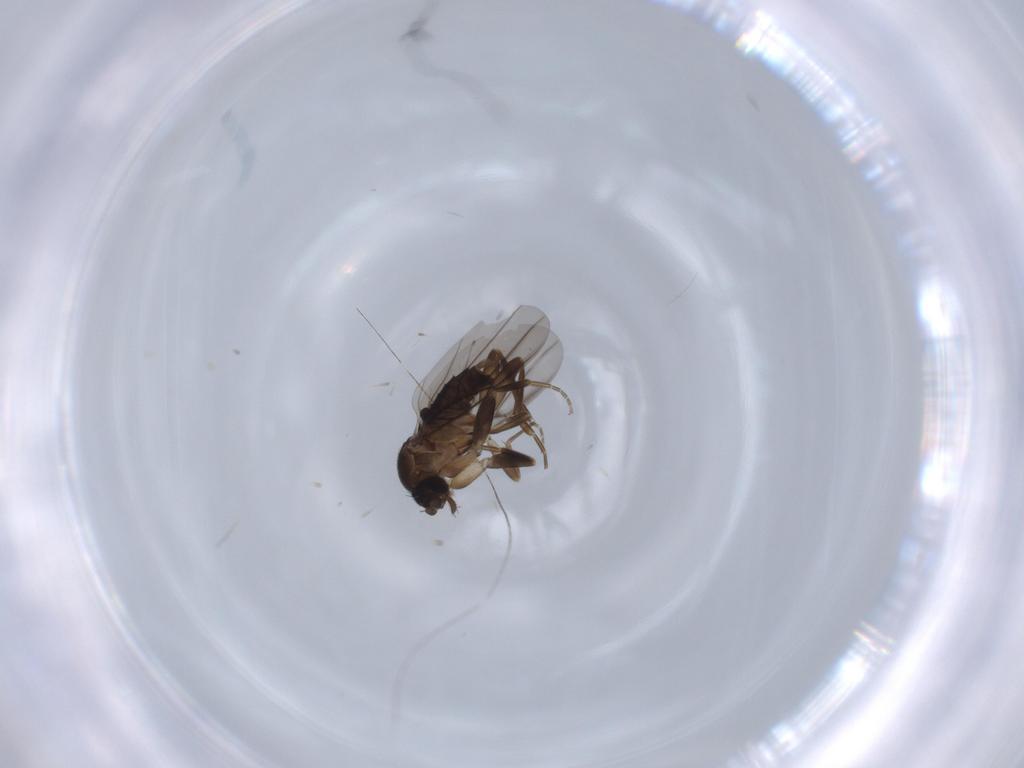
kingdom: Animalia
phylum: Arthropoda
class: Insecta
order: Diptera
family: Phoridae
